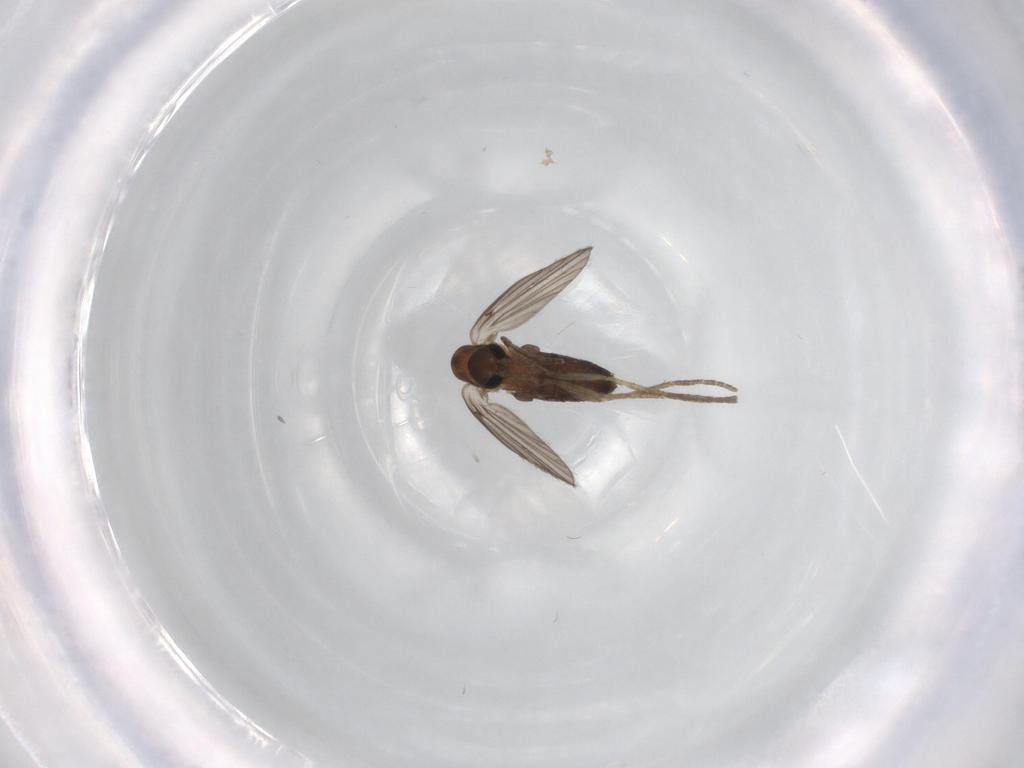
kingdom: Animalia
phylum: Arthropoda
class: Insecta
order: Diptera
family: Psychodidae
